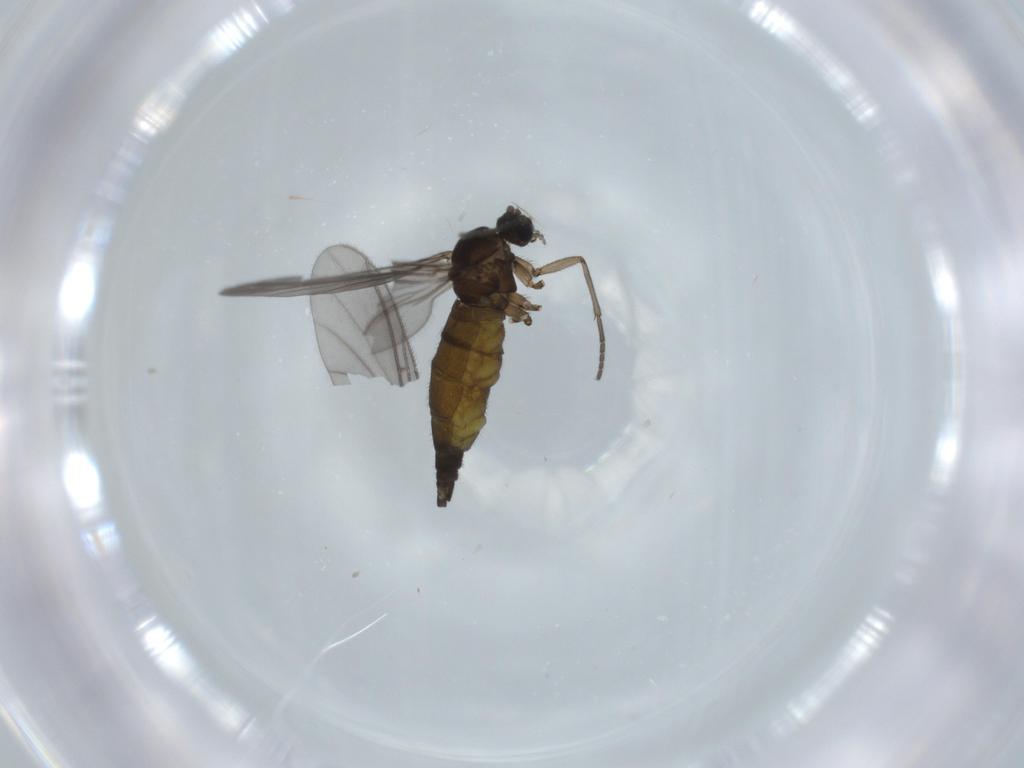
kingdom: Animalia
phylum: Arthropoda
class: Insecta
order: Diptera
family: Sciaridae
